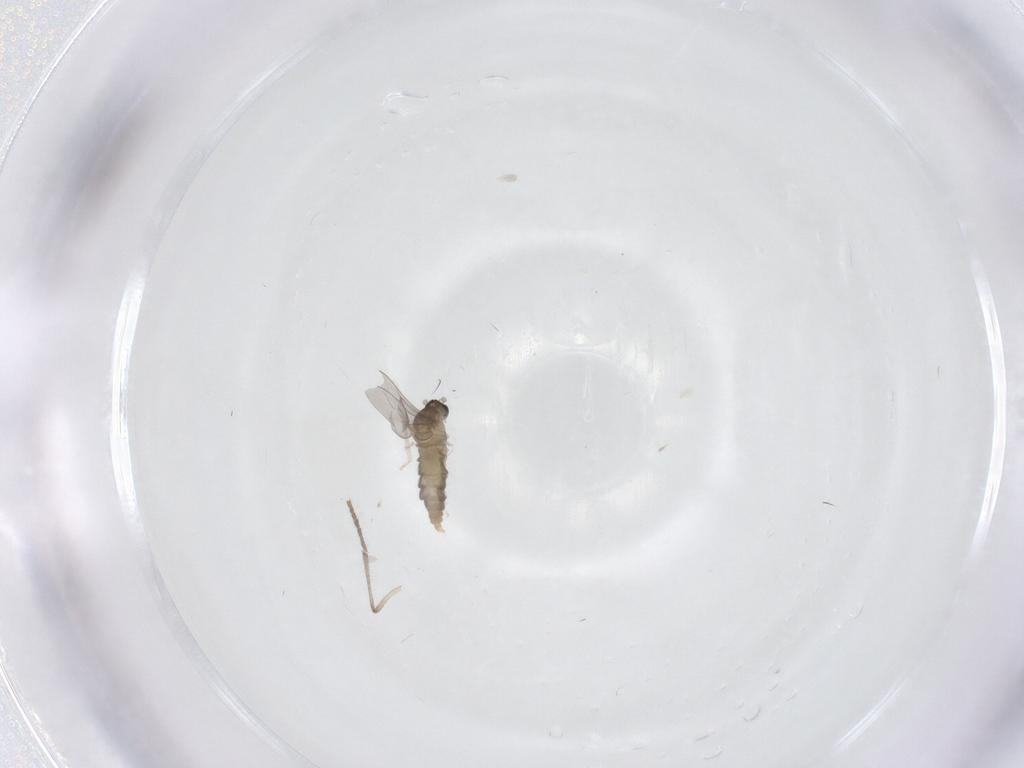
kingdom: Animalia
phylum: Arthropoda
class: Insecta
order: Diptera
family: Cecidomyiidae
